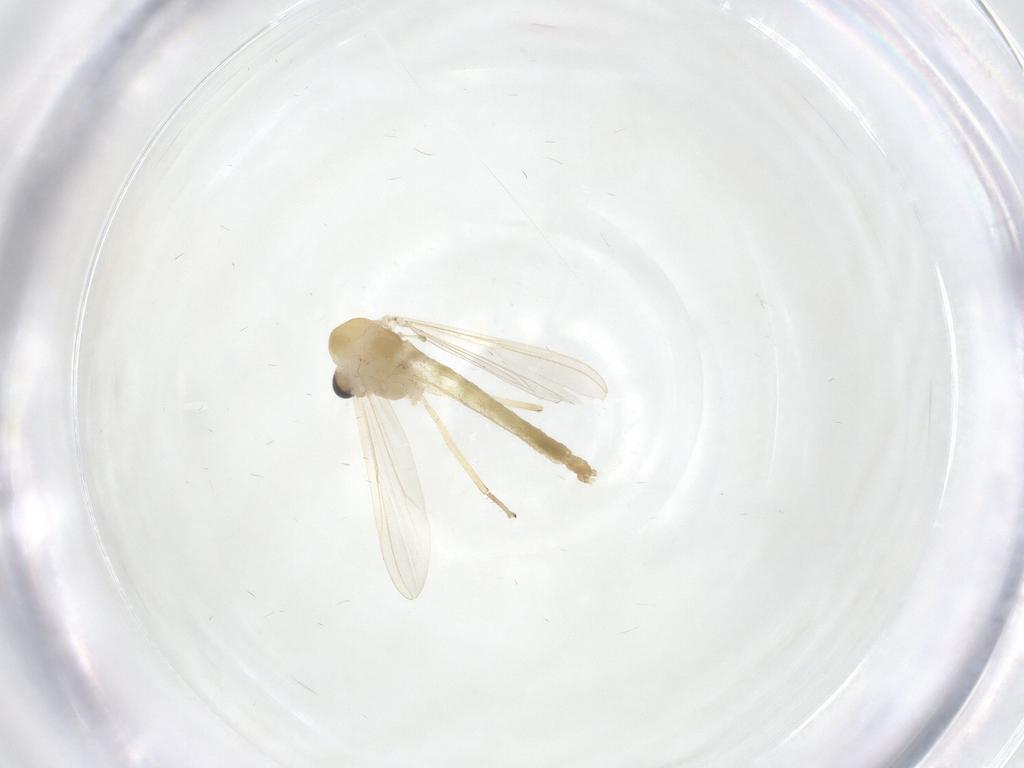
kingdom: Animalia
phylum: Arthropoda
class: Insecta
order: Diptera
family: Chironomidae
